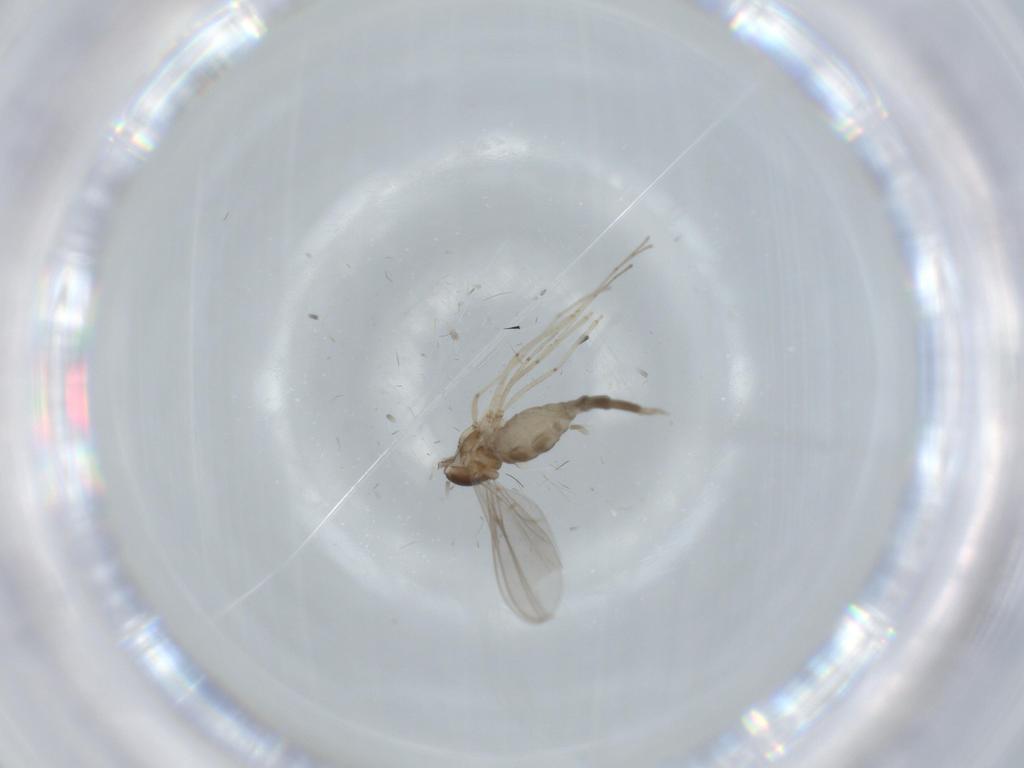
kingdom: Animalia
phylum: Arthropoda
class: Insecta
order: Diptera
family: Cecidomyiidae
